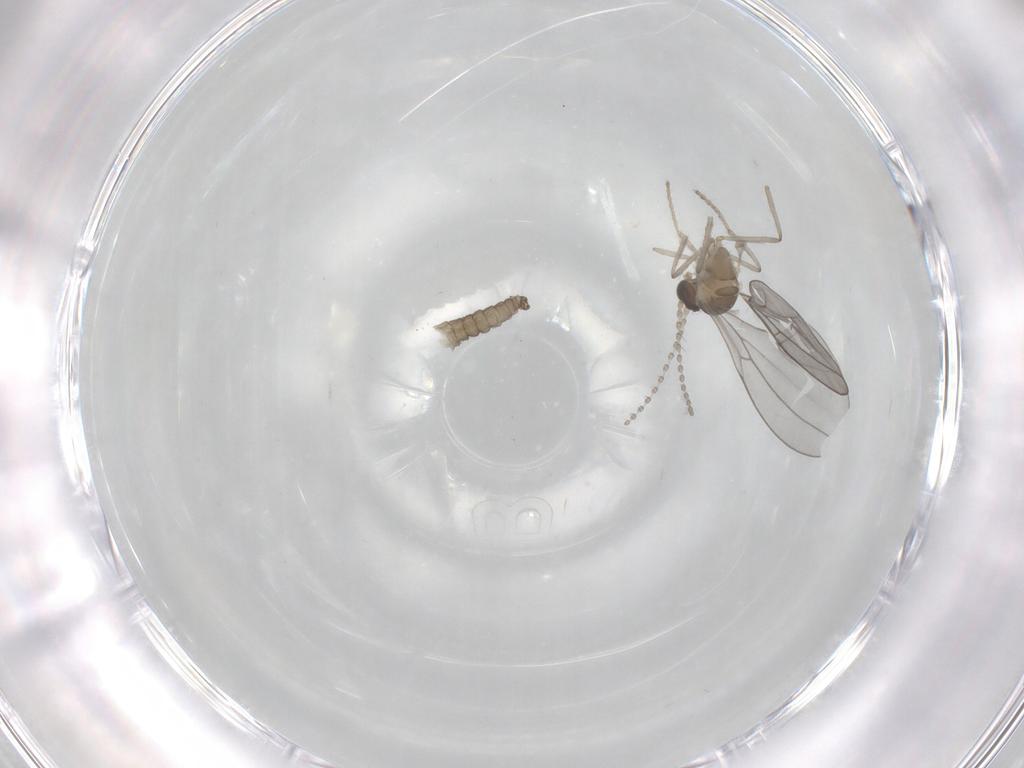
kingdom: Animalia
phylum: Arthropoda
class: Insecta
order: Diptera
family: Cecidomyiidae
